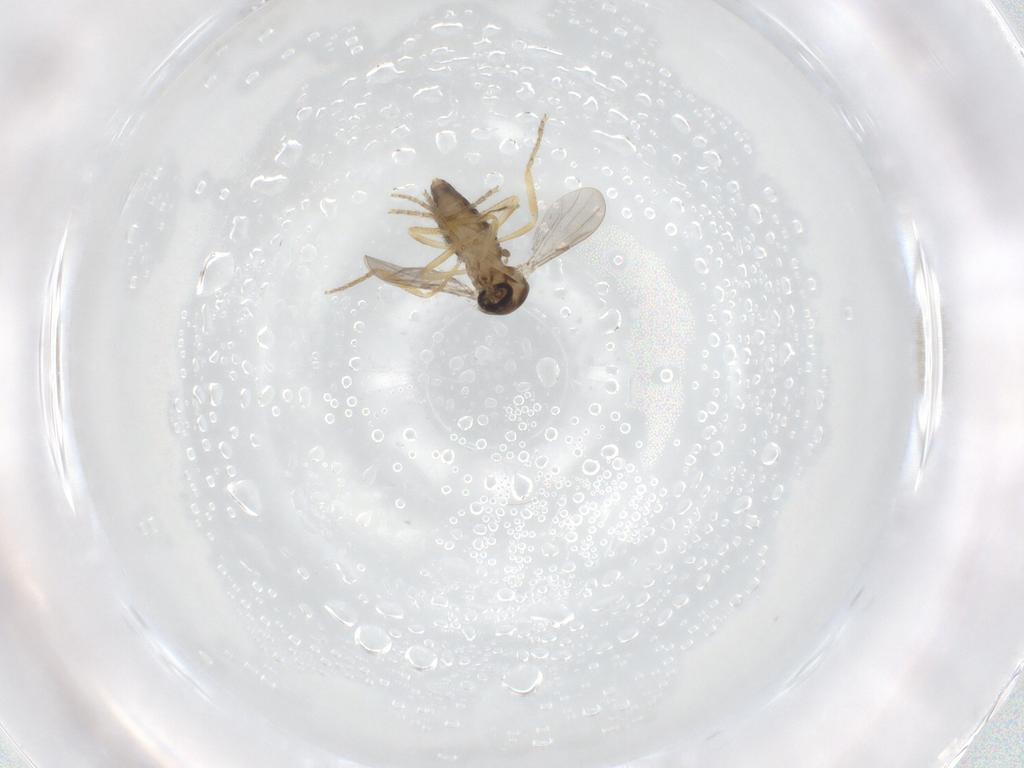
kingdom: Animalia
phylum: Arthropoda
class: Insecta
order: Diptera
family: Ceratopogonidae
